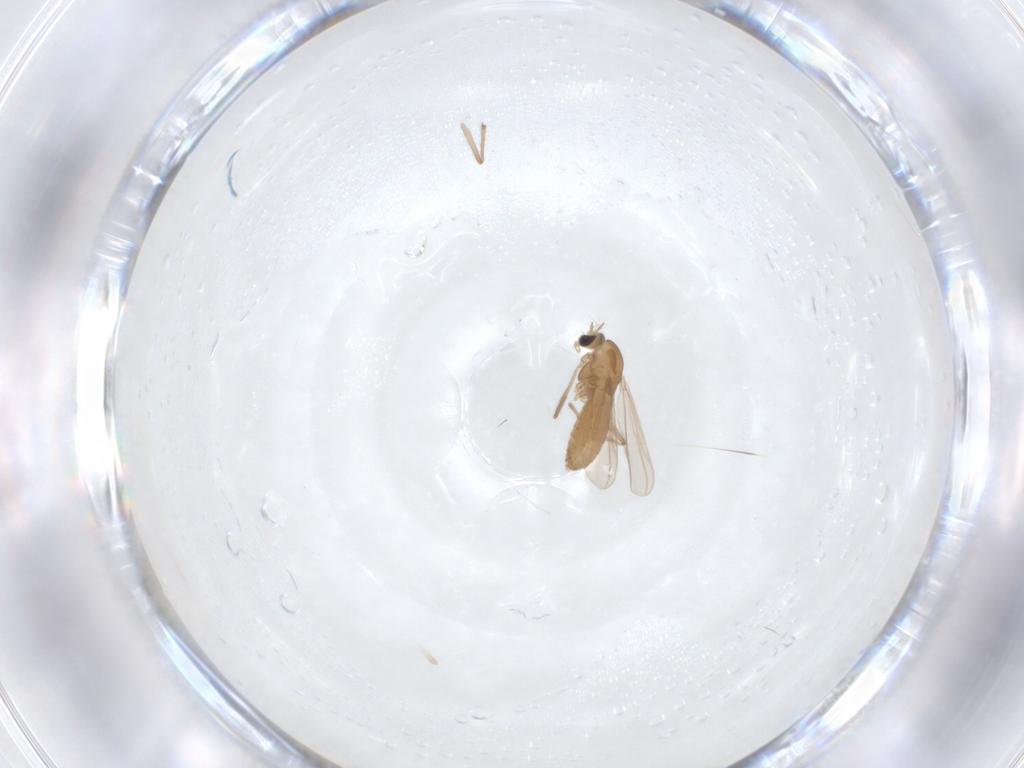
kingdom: Animalia
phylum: Arthropoda
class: Insecta
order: Diptera
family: Chironomidae
